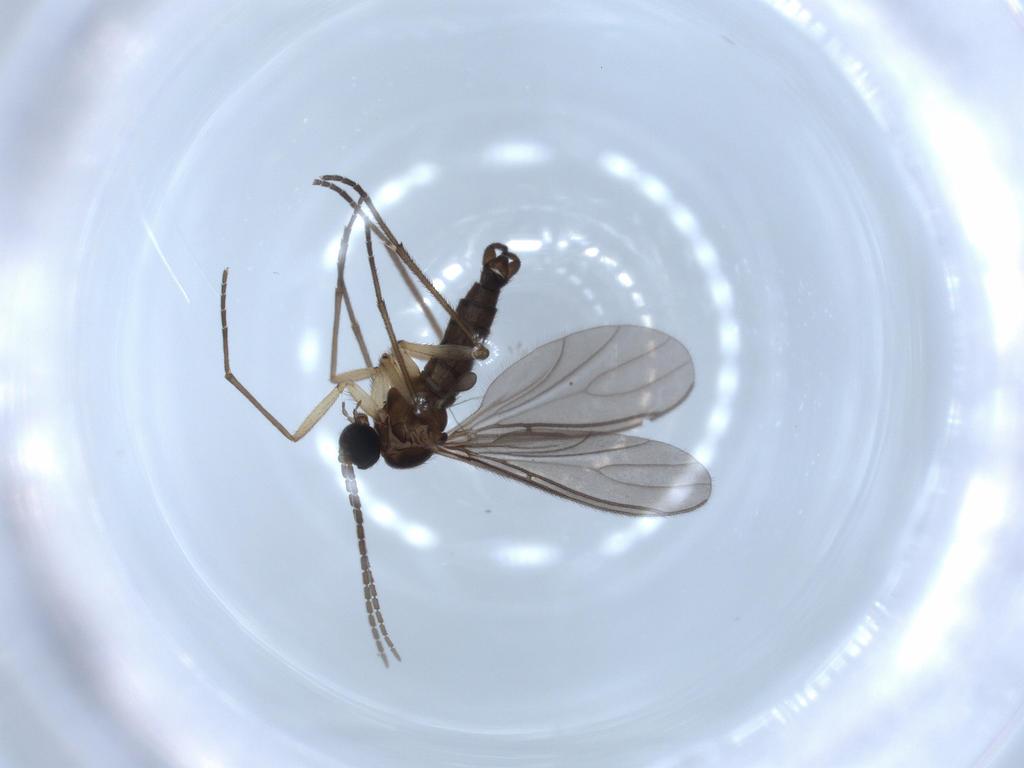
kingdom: Animalia
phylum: Arthropoda
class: Insecta
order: Diptera
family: Sciaridae
